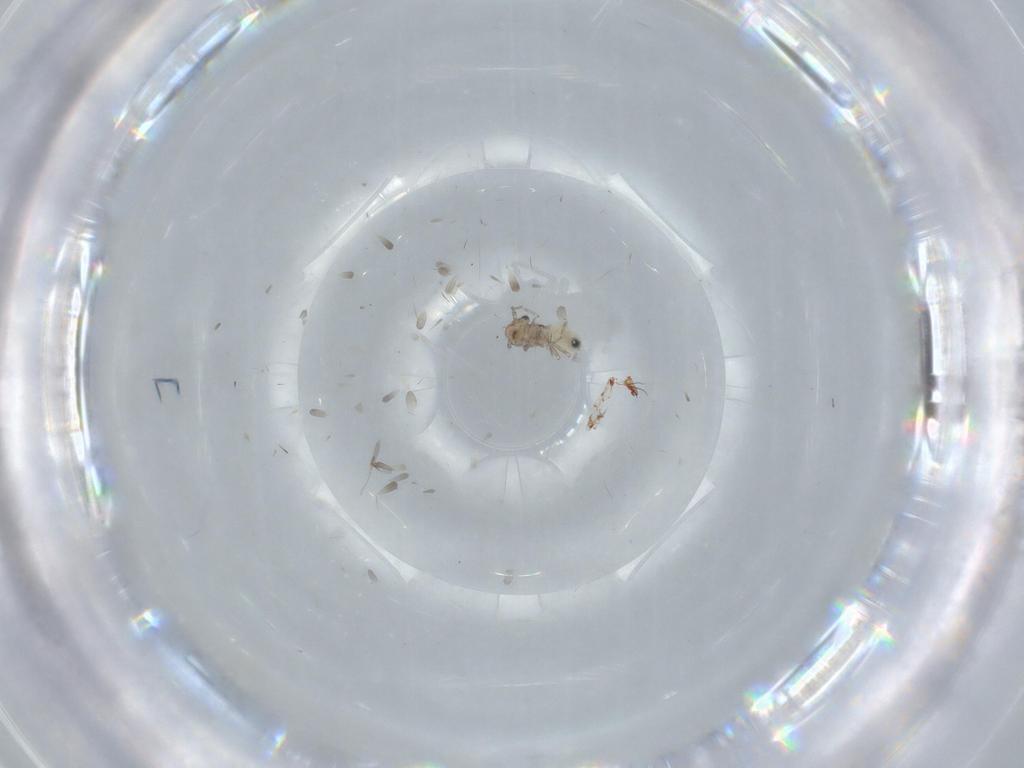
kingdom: Animalia
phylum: Arthropoda
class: Insecta
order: Psocodea
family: Lepidopsocidae
